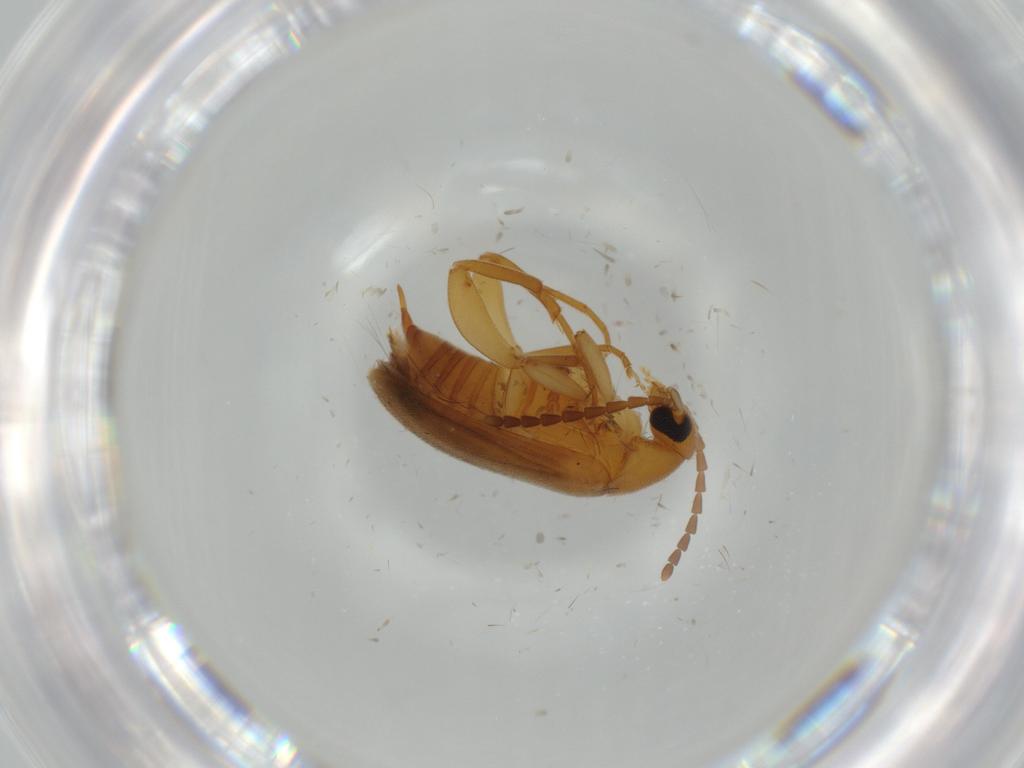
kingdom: Animalia
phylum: Arthropoda
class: Insecta
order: Coleoptera
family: Scraptiidae
